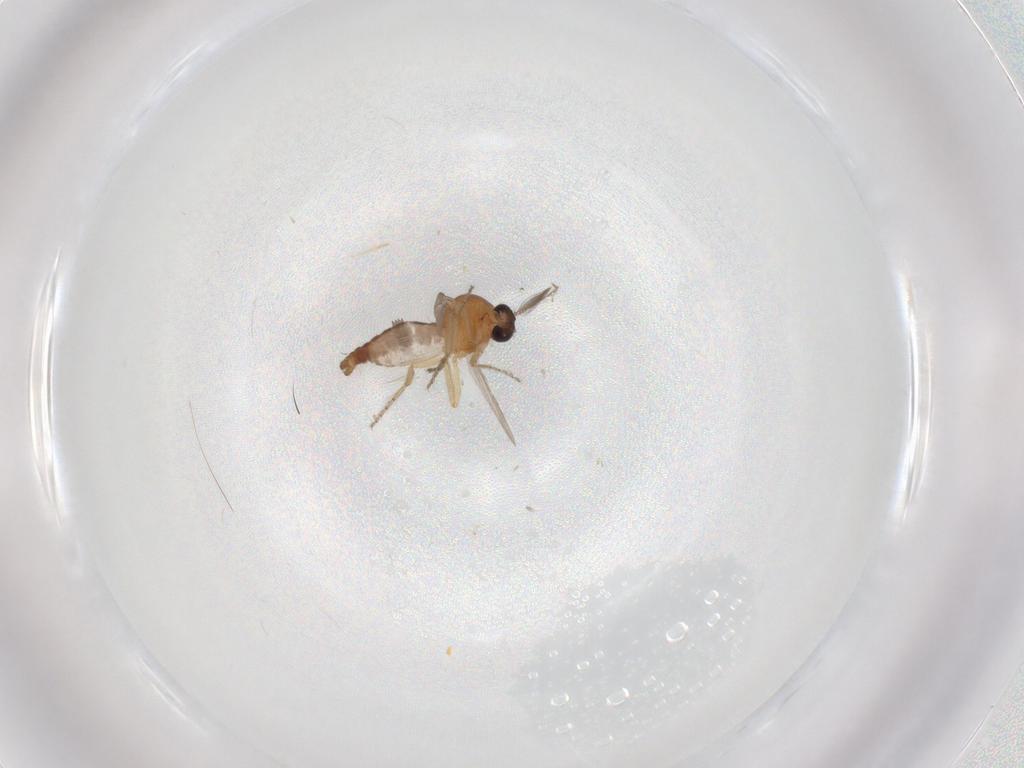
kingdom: Animalia
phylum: Arthropoda
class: Insecta
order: Diptera
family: Ceratopogonidae
